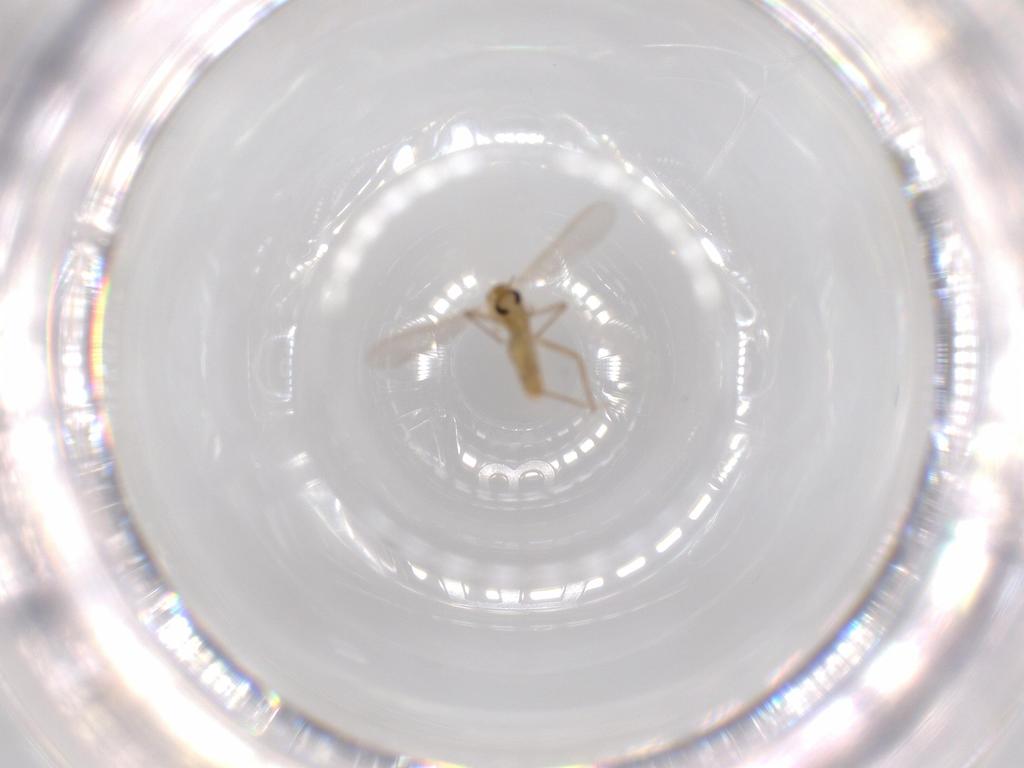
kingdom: Animalia
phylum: Arthropoda
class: Insecta
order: Diptera
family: Chironomidae
